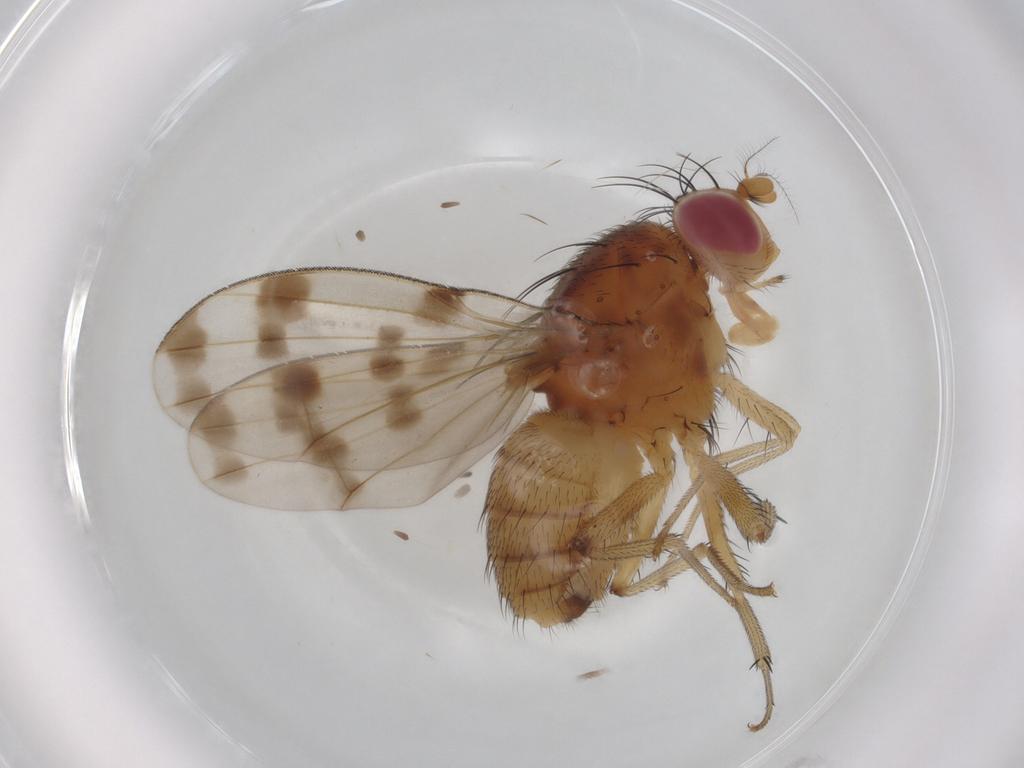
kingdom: Animalia
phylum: Arthropoda
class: Insecta
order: Diptera
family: Lauxaniidae
